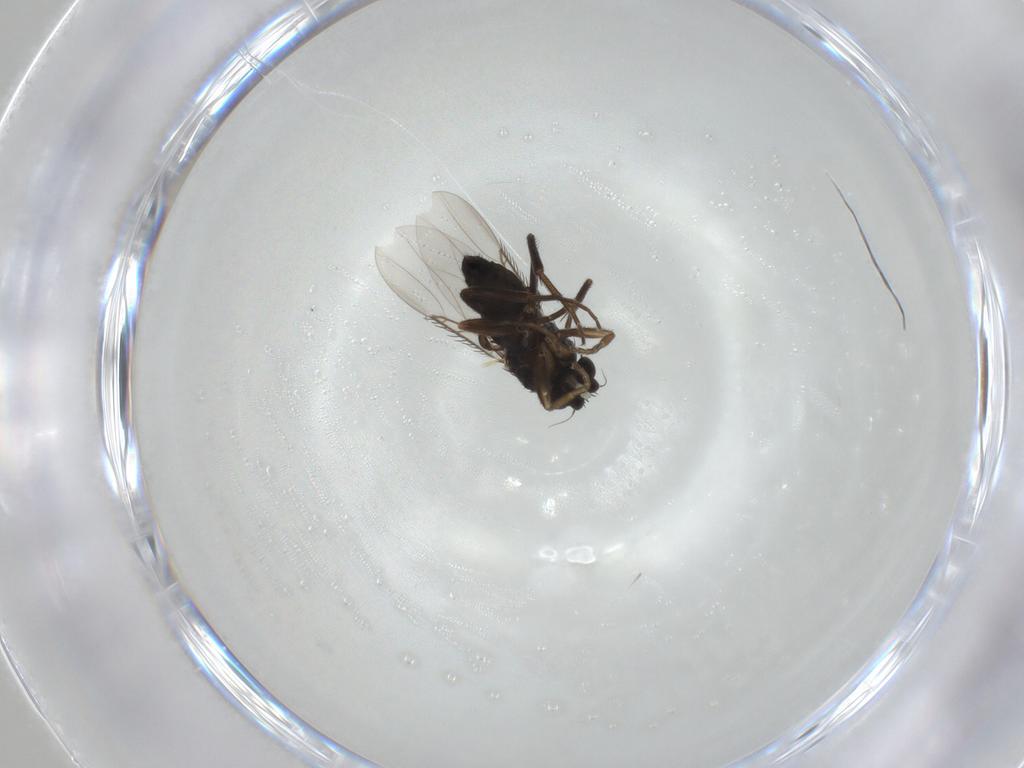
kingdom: Animalia
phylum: Arthropoda
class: Insecta
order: Diptera
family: Phoridae
